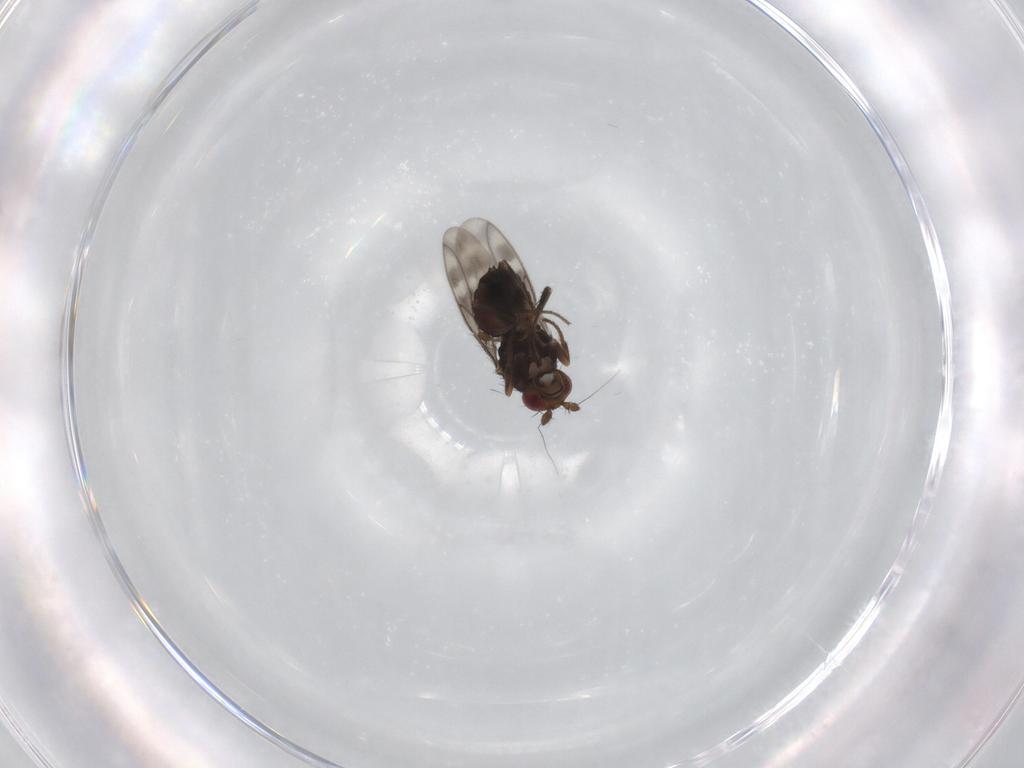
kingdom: Animalia
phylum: Arthropoda
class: Insecta
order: Diptera
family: Sphaeroceridae
